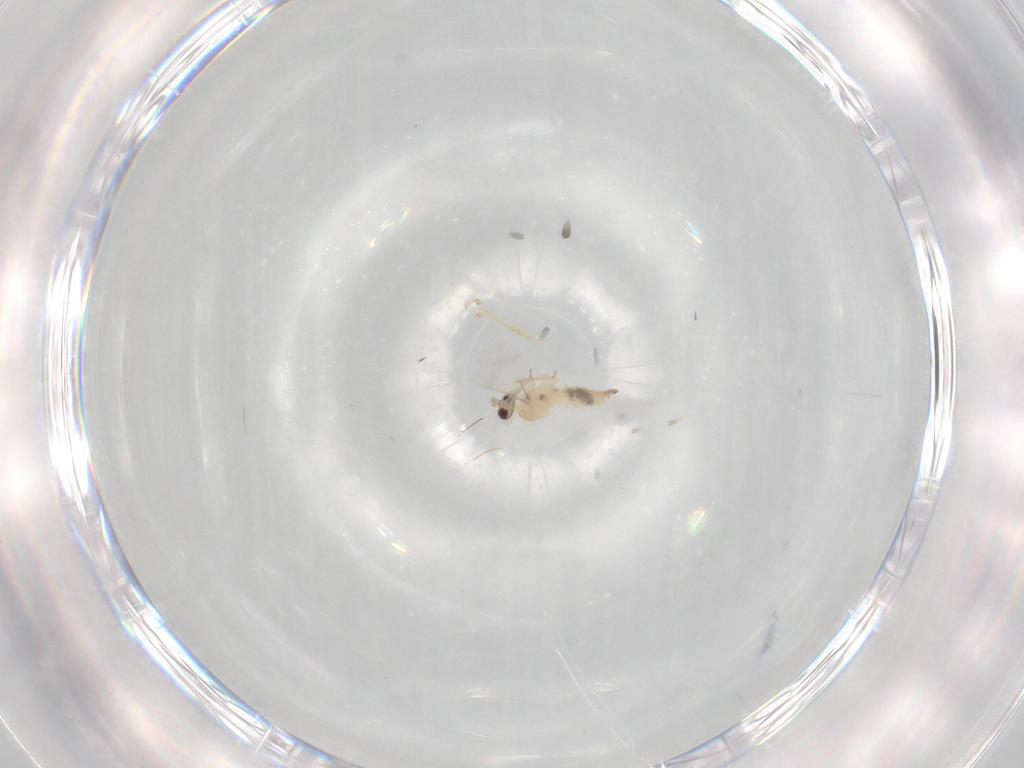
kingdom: Animalia
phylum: Arthropoda
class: Insecta
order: Diptera
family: Cecidomyiidae
